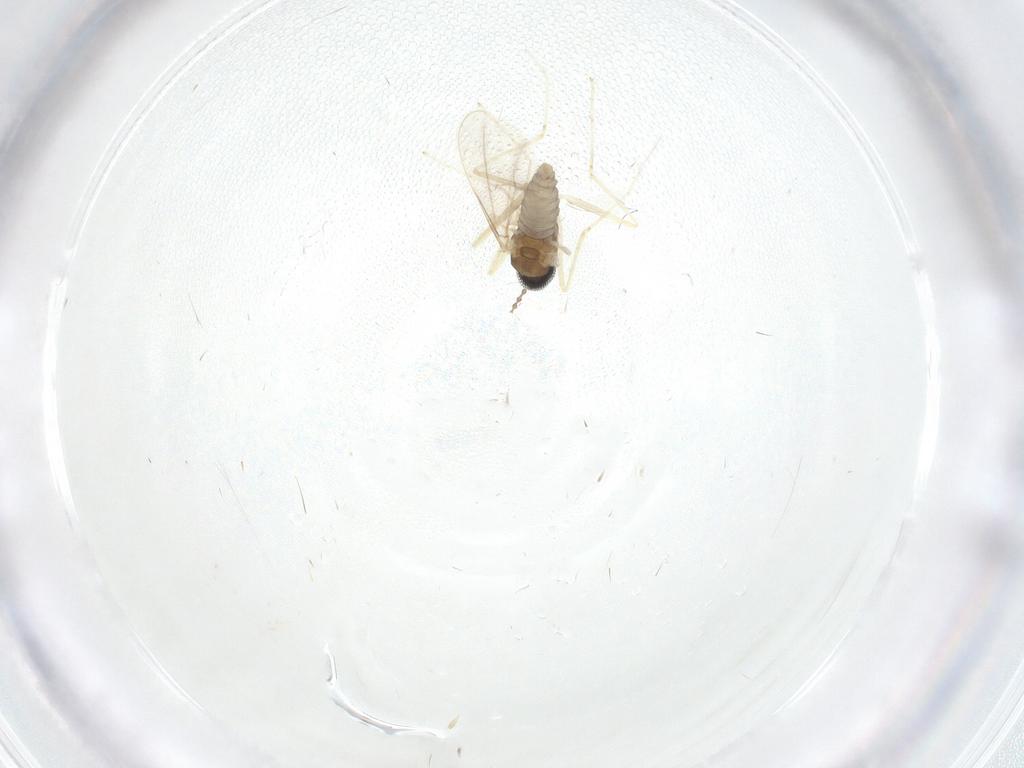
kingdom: Animalia
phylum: Arthropoda
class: Insecta
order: Diptera
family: Cecidomyiidae
